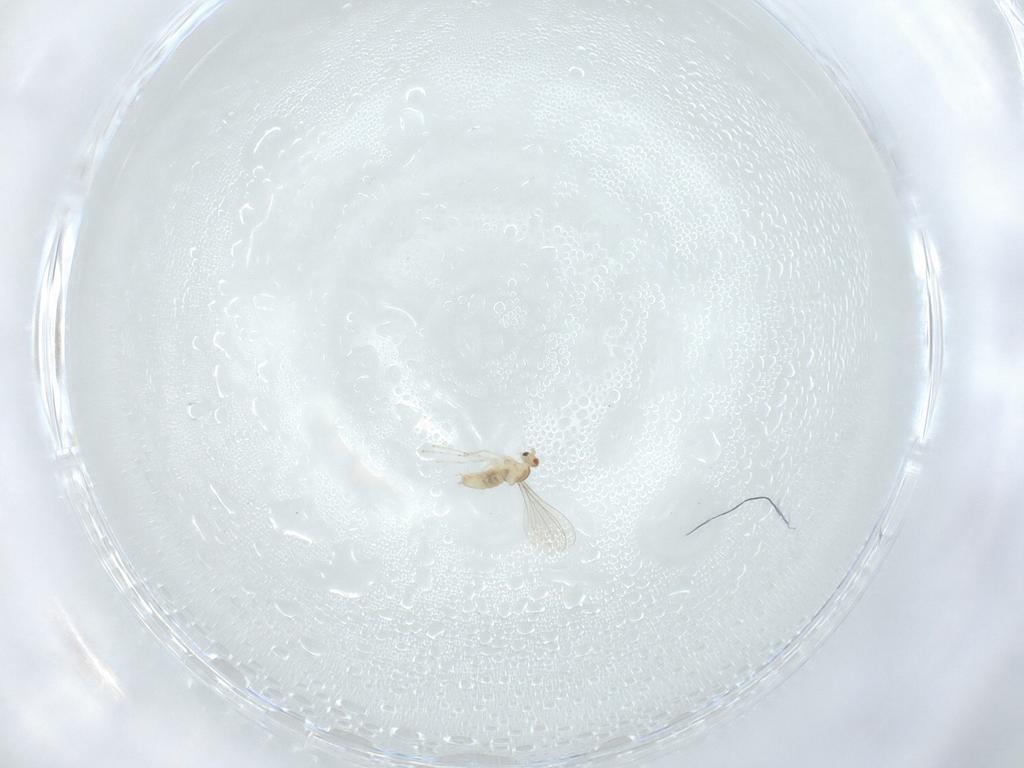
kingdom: Animalia
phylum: Arthropoda
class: Insecta
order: Diptera
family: Cecidomyiidae
